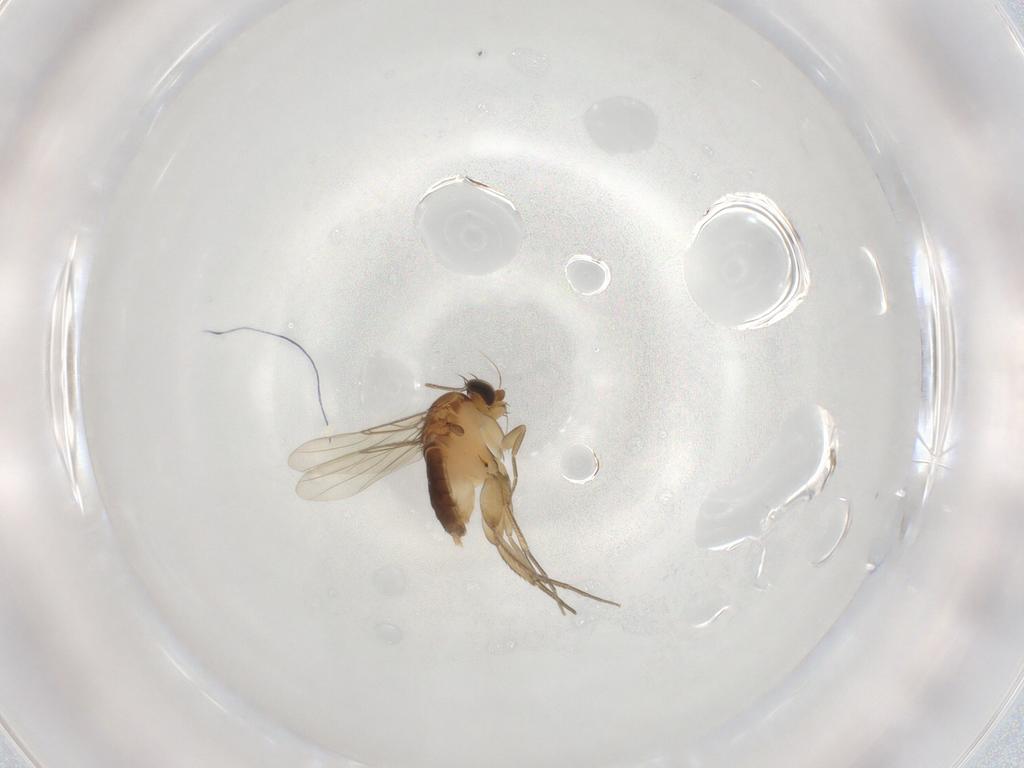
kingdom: Animalia
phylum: Arthropoda
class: Insecta
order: Diptera
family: Phoridae
